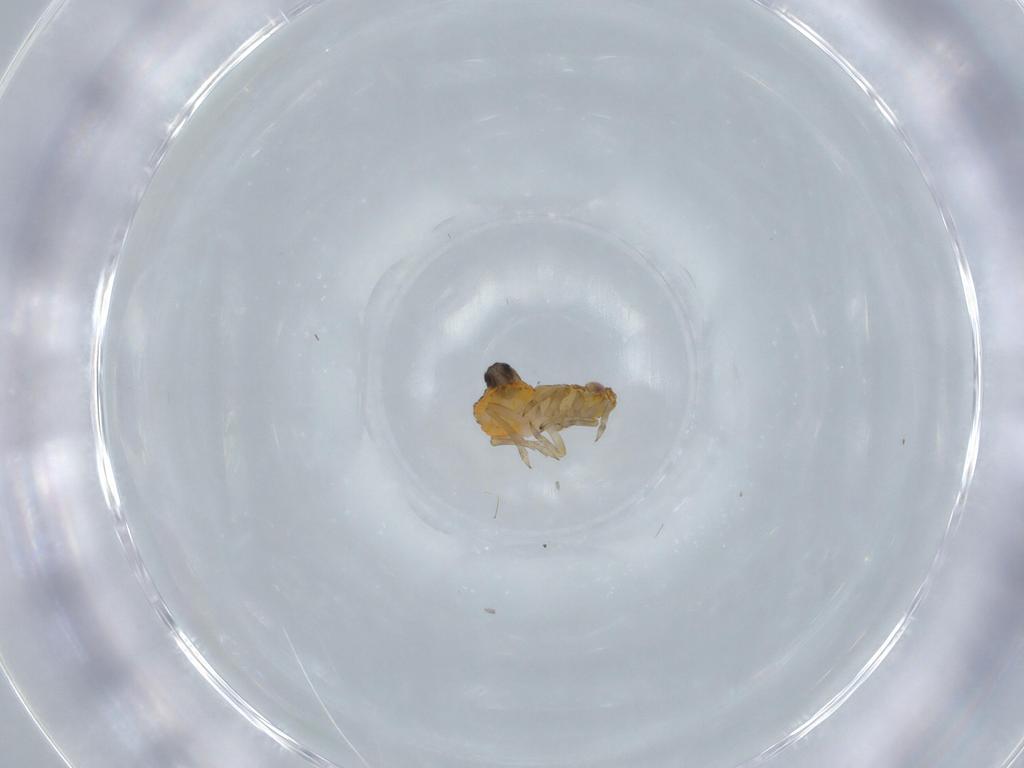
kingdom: Animalia
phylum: Arthropoda
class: Insecta
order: Hemiptera
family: Delphacidae
